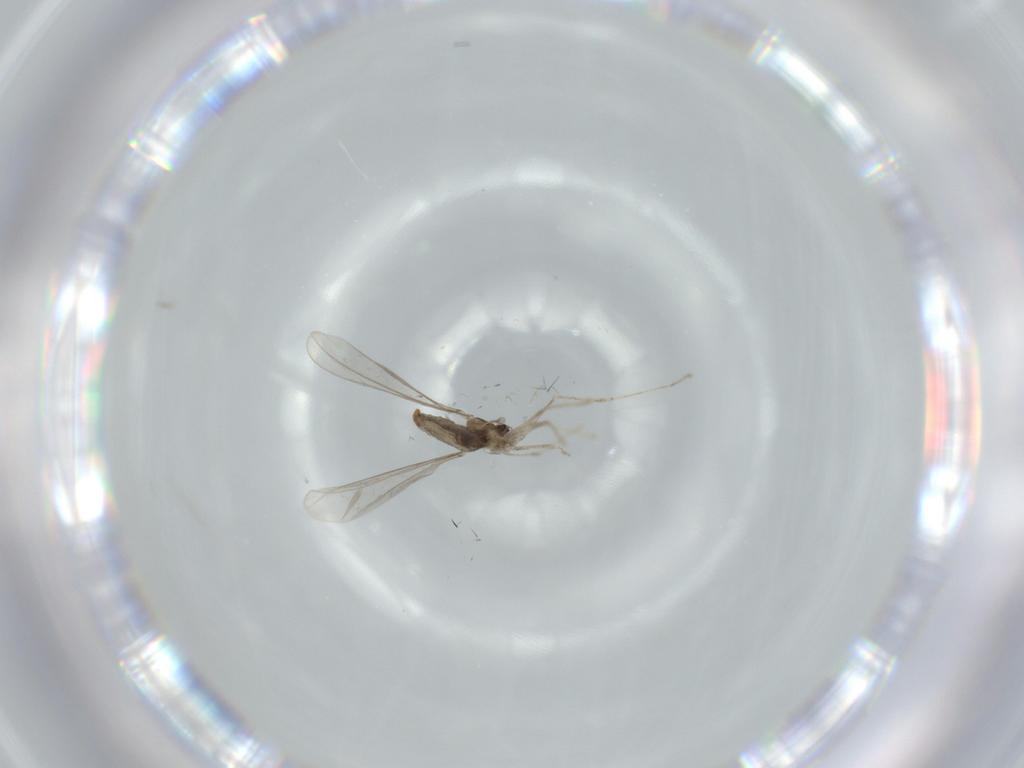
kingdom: Animalia
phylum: Arthropoda
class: Insecta
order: Diptera
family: Cecidomyiidae
